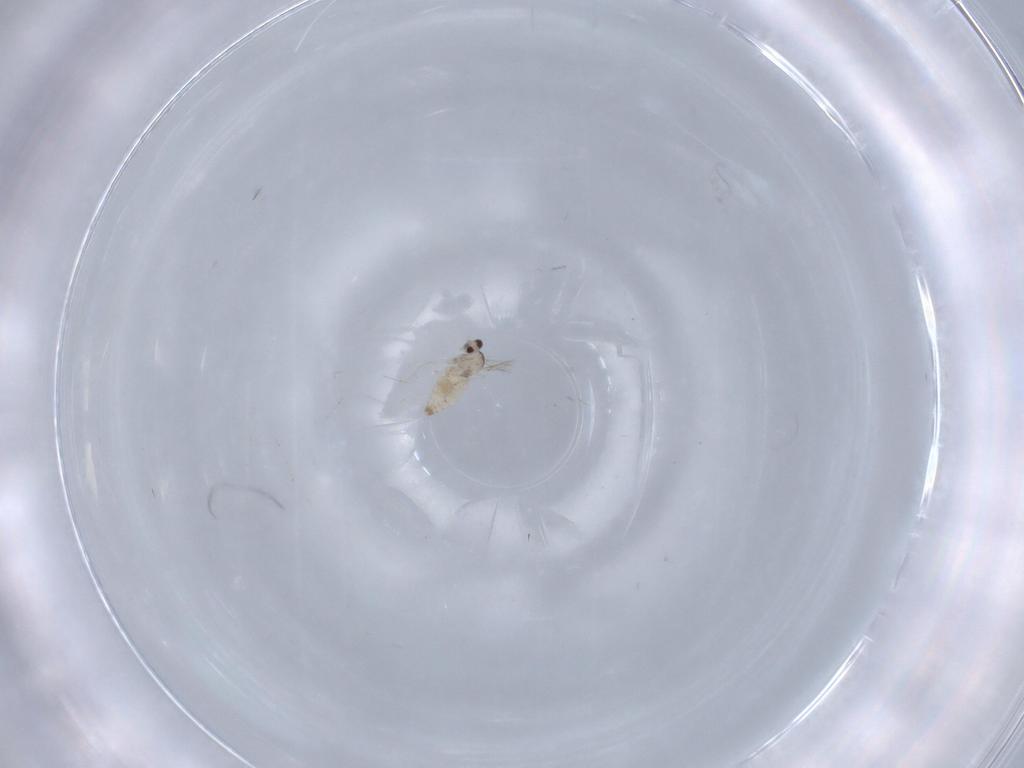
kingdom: Animalia
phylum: Arthropoda
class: Insecta
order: Diptera
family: Cecidomyiidae
